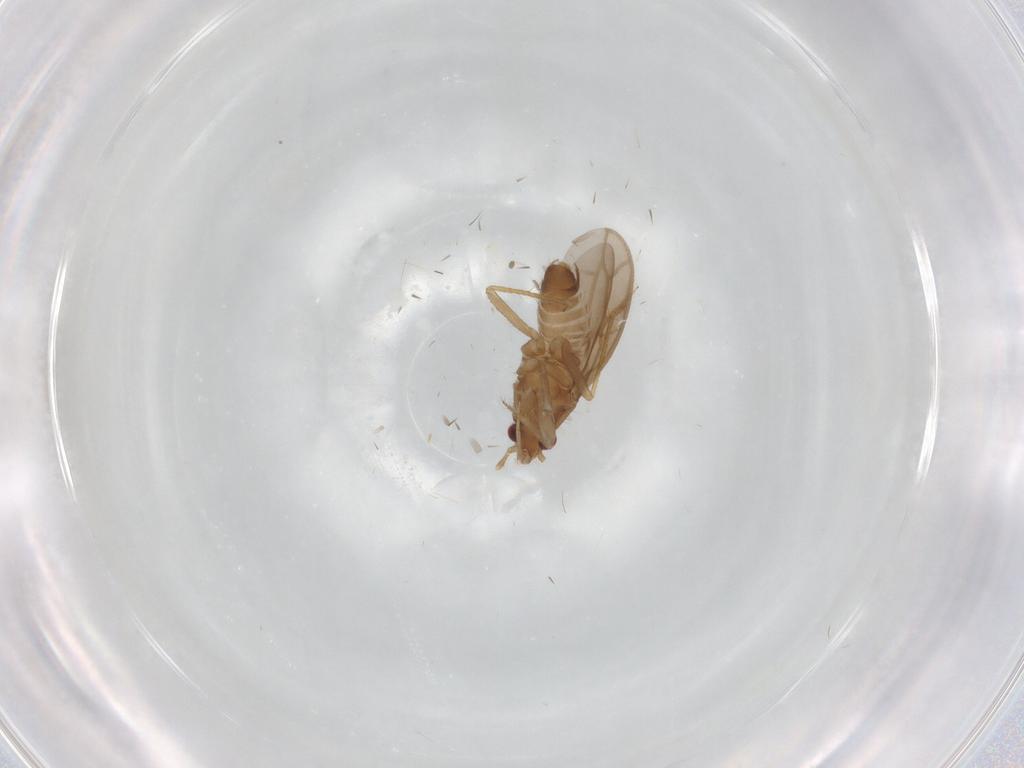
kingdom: Animalia
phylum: Arthropoda
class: Insecta
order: Hemiptera
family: Ceratocombidae
